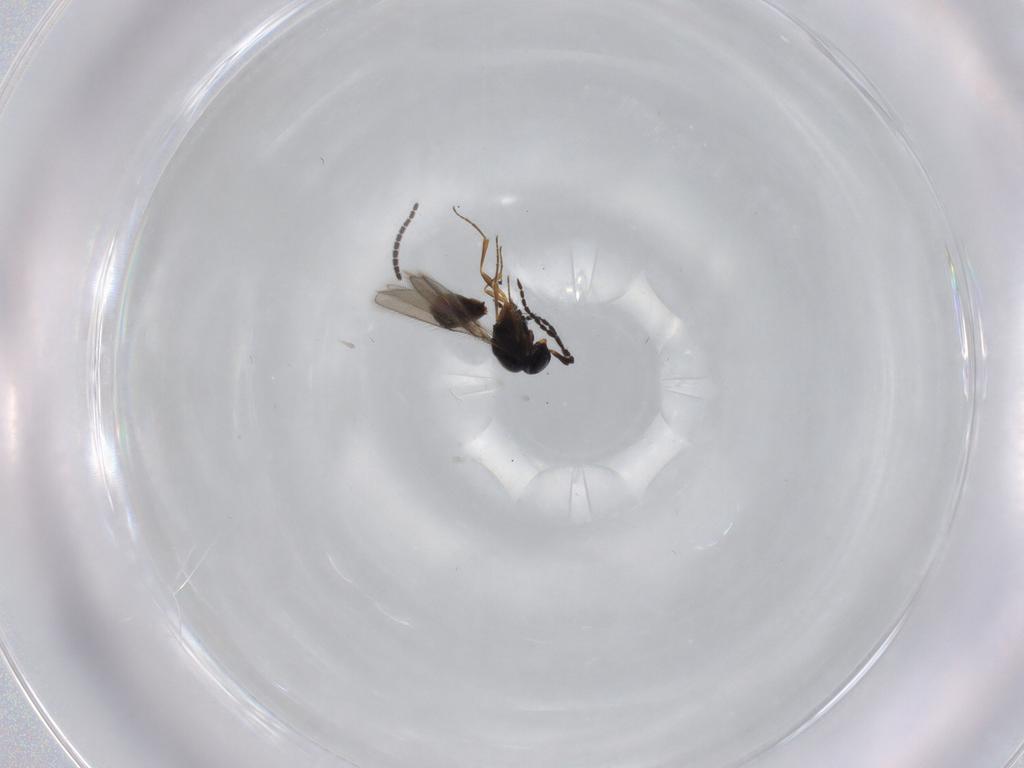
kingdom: Animalia
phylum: Arthropoda
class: Insecta
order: Hymenoptera
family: Scelionidae
